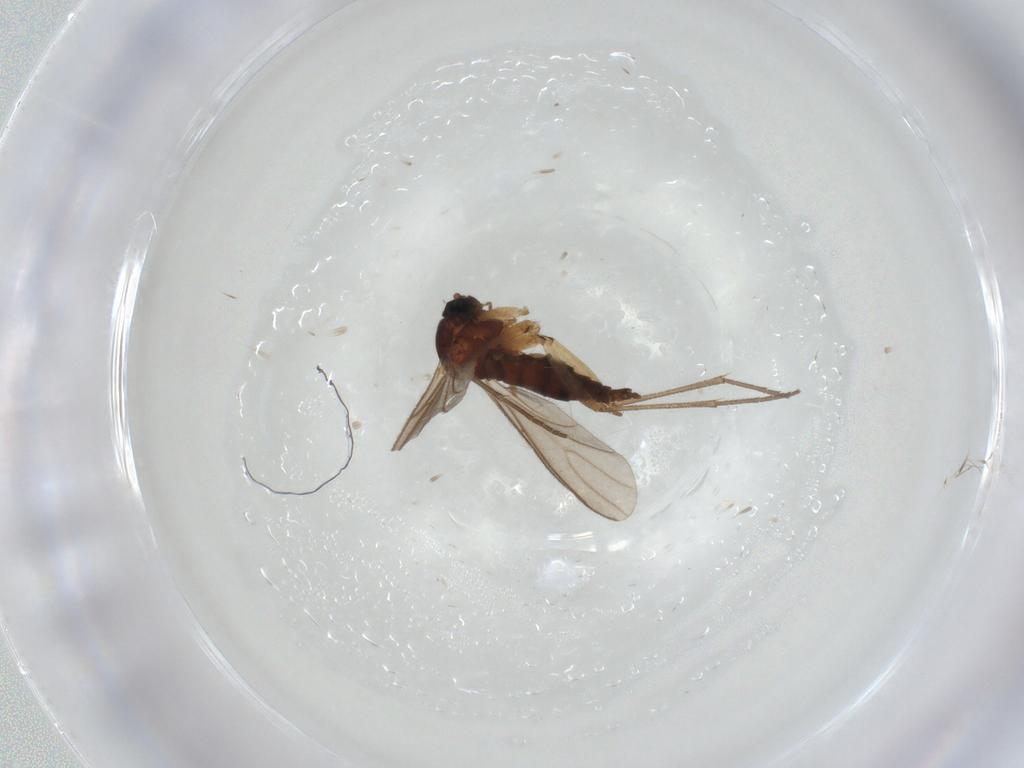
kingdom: Animalia
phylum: Arthropoda
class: Insecta
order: Diptera
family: Sciaridae
